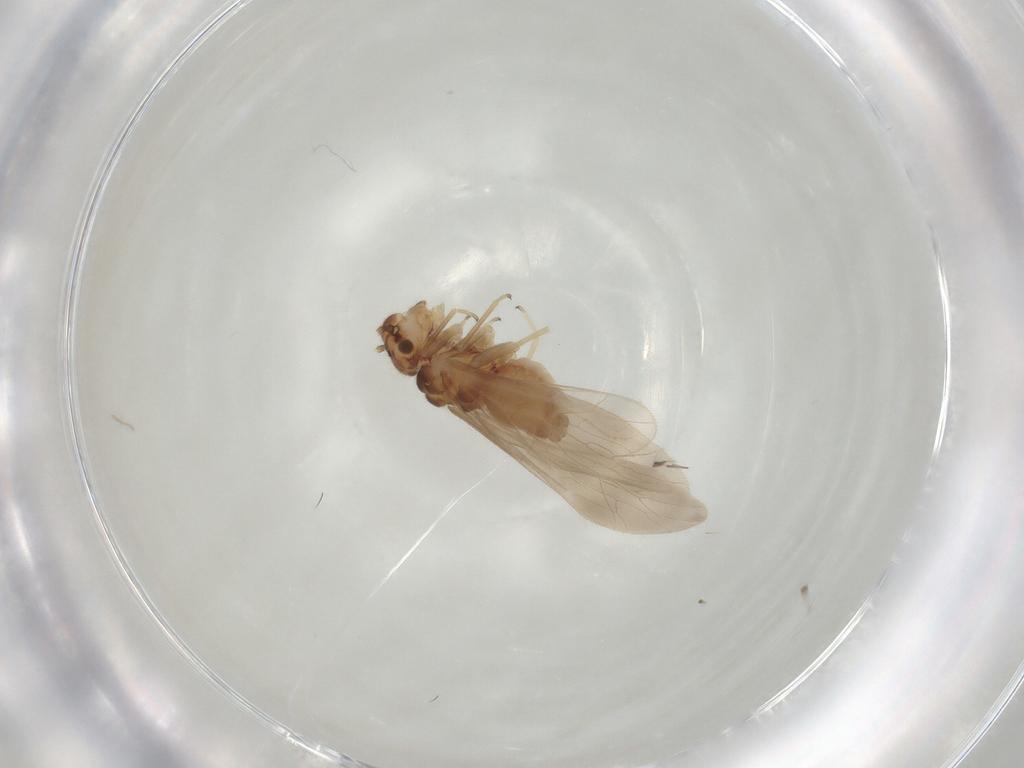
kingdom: Animalia
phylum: Arthropoda
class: Insecta
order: Psocodea
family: Caeciliusidae
